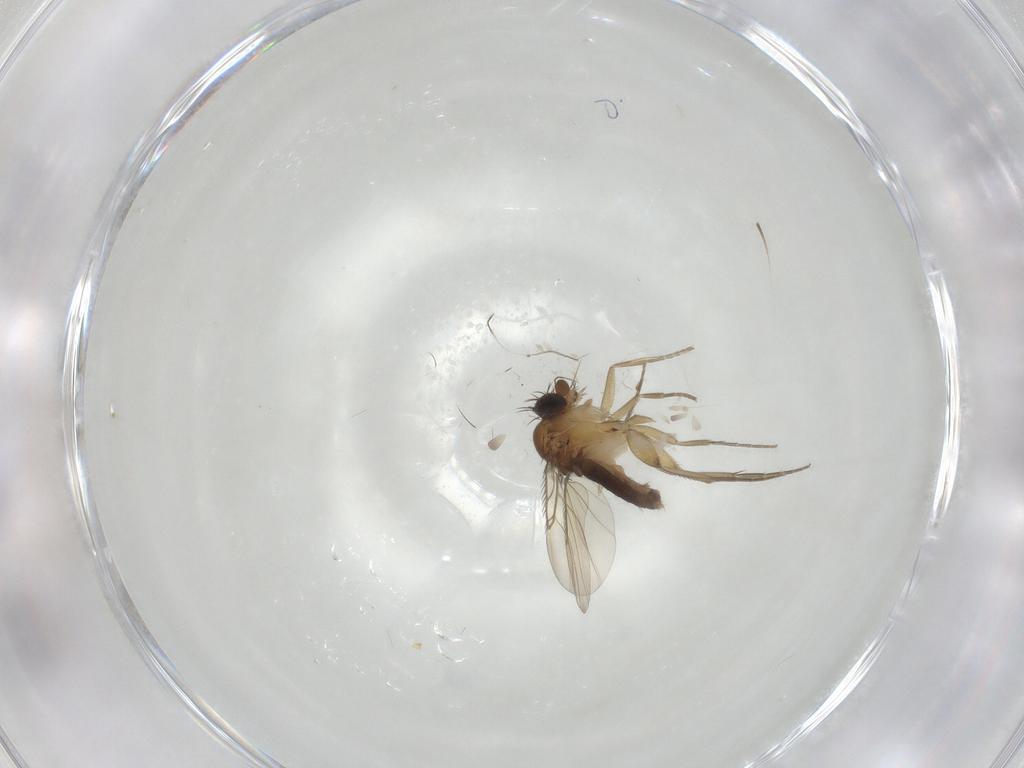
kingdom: Animalia
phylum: Arthropoda
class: Insecta
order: Diptera
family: Phoridae
